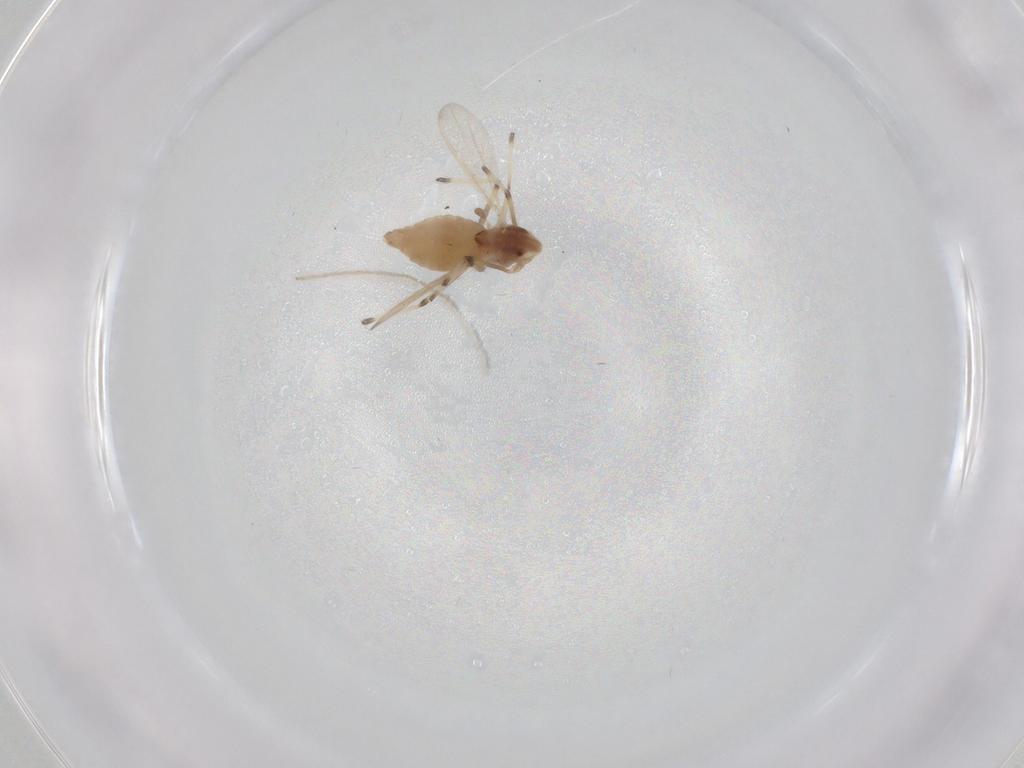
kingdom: Animalia
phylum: Arthropoda
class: Insecta
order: Diptera
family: Chironomidae
